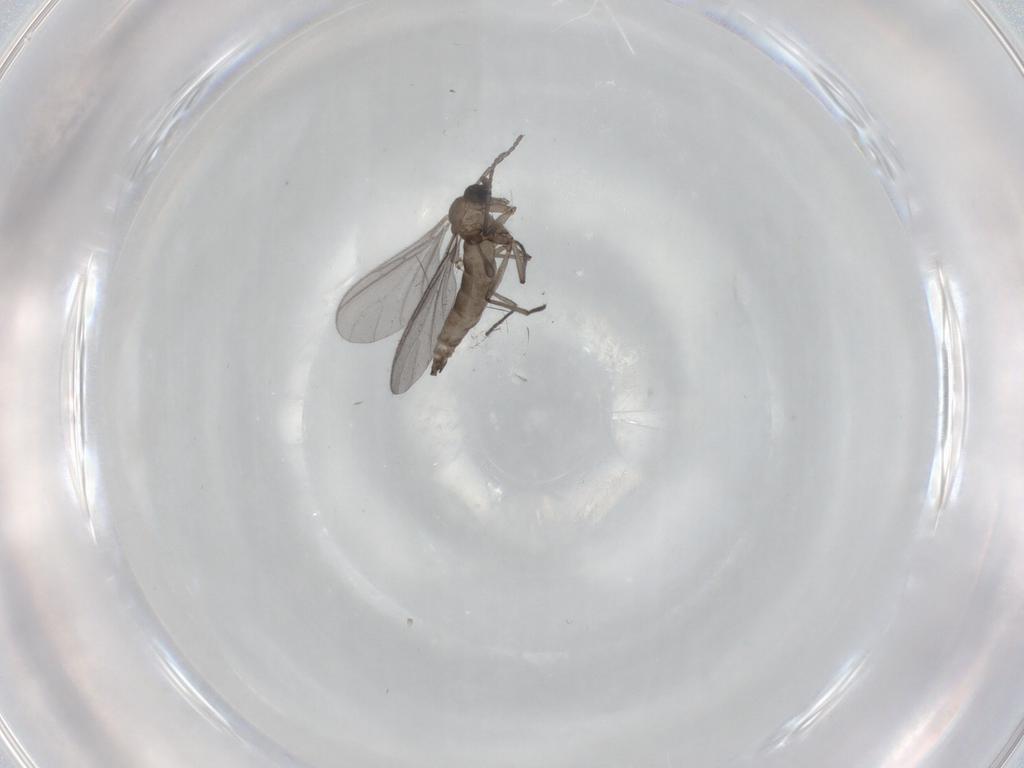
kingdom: Animalia
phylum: Arthropoda
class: Insecta
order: Diptera
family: Sciaridae
